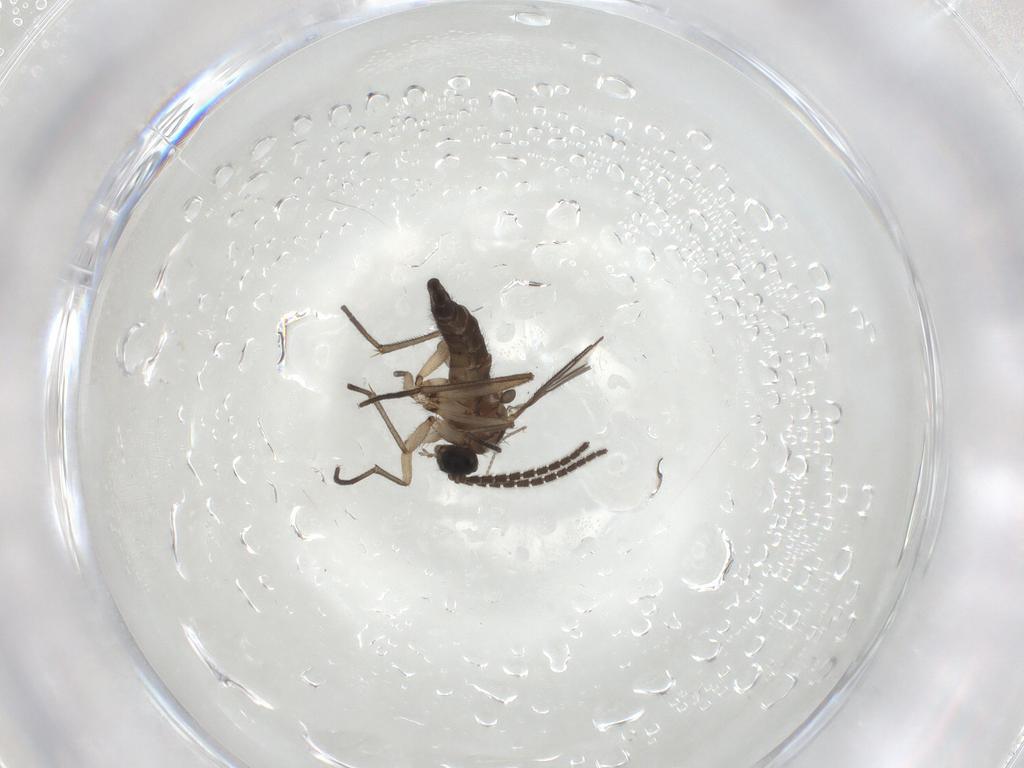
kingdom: Animalia
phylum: Arthropoda
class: Insecta
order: Diptera
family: Sciaridae
